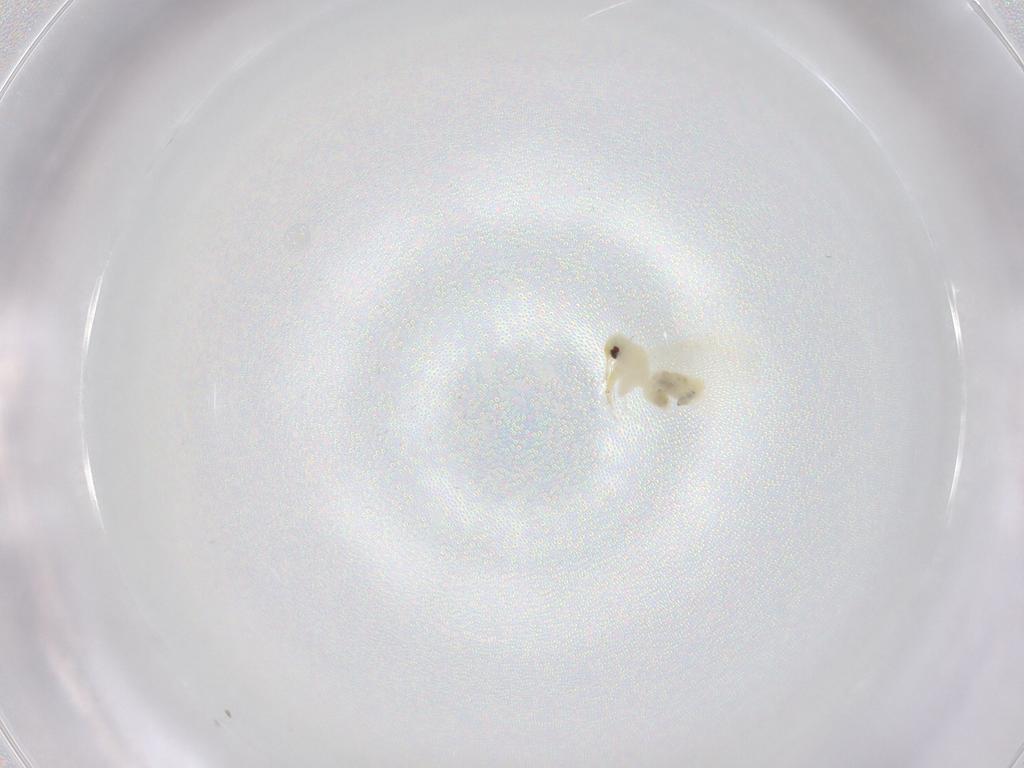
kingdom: Animalia
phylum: Arthropoda
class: Insecta
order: Hemiptera
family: Aleyrodidae
